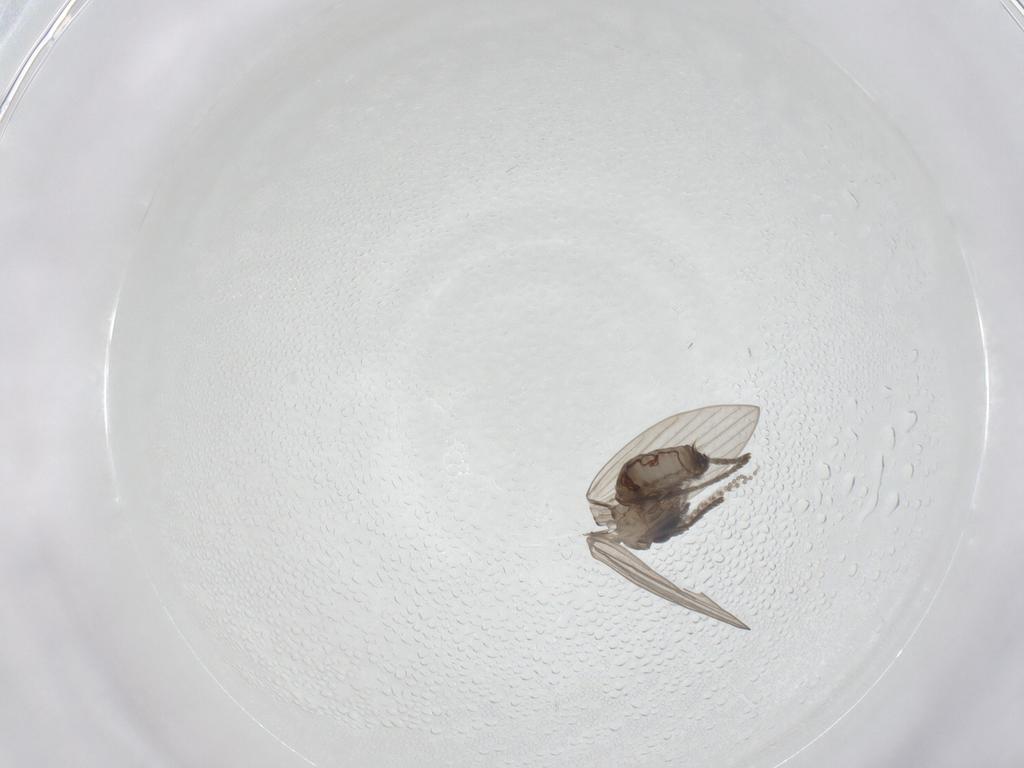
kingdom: Animalia
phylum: Arthropoda
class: Insecta
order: Diptera
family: Psychodidae
